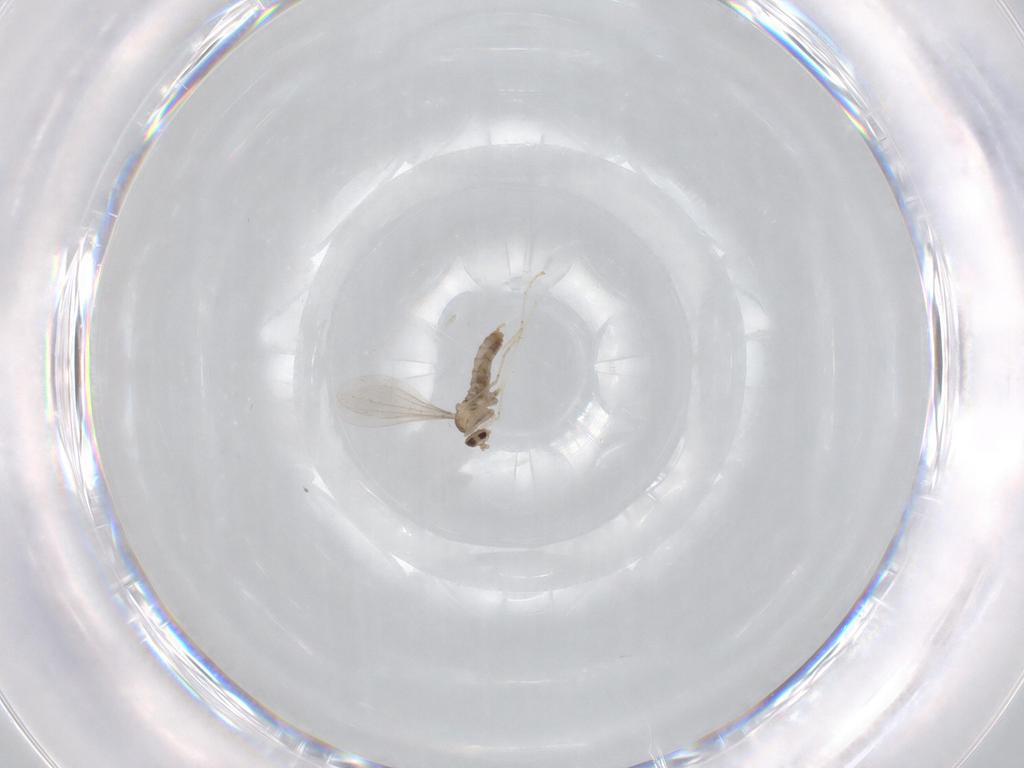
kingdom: Animalia
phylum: Arthropoda
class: Insecta
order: Diptera
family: Cecidomyiidae
